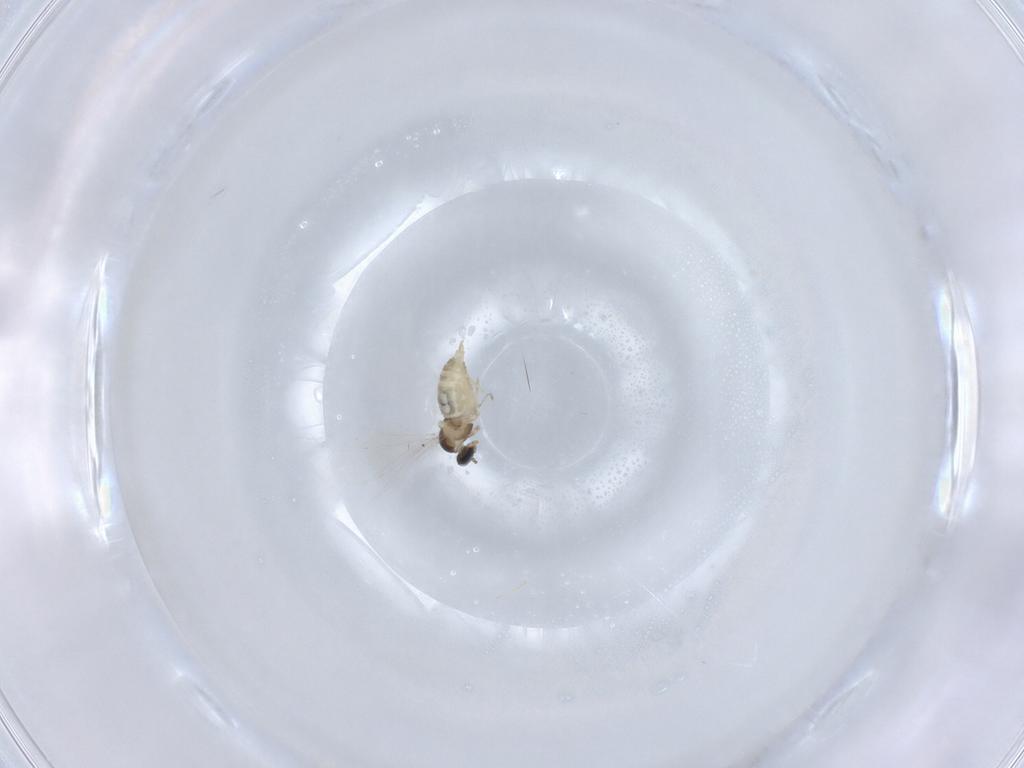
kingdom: Animalia
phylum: Arthropoda
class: Insecta
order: Diptera
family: Cecidomyiidae
